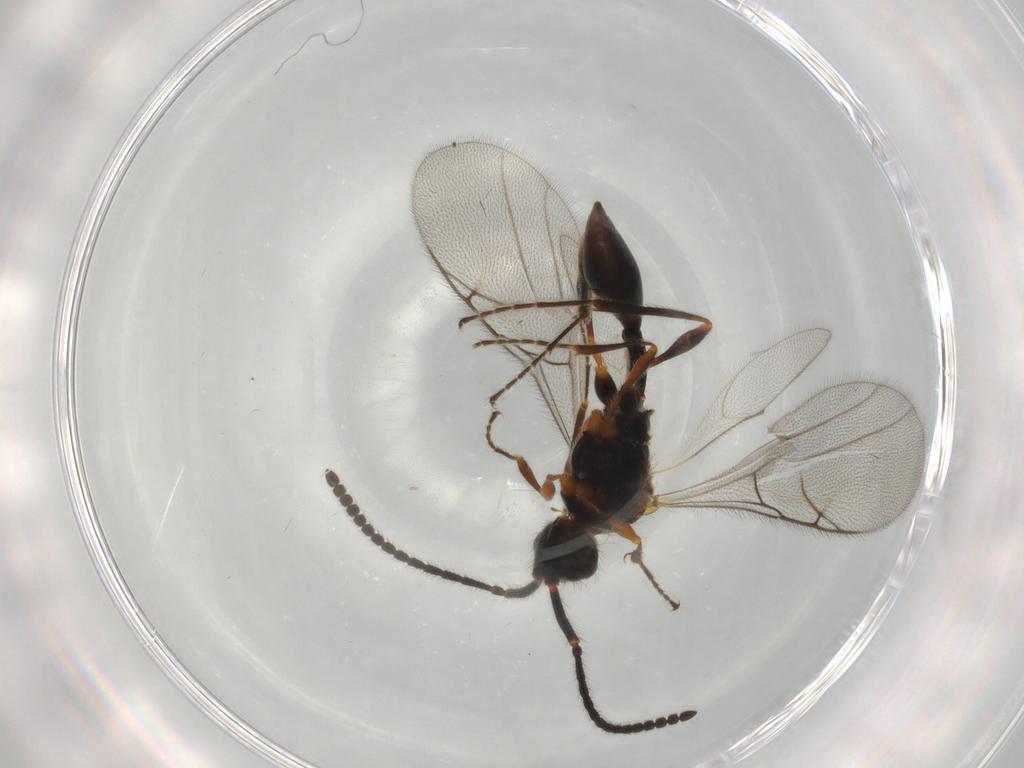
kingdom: Animalia
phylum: Arthropoda
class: Insecta
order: Hymenoptera
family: Diapriidae
